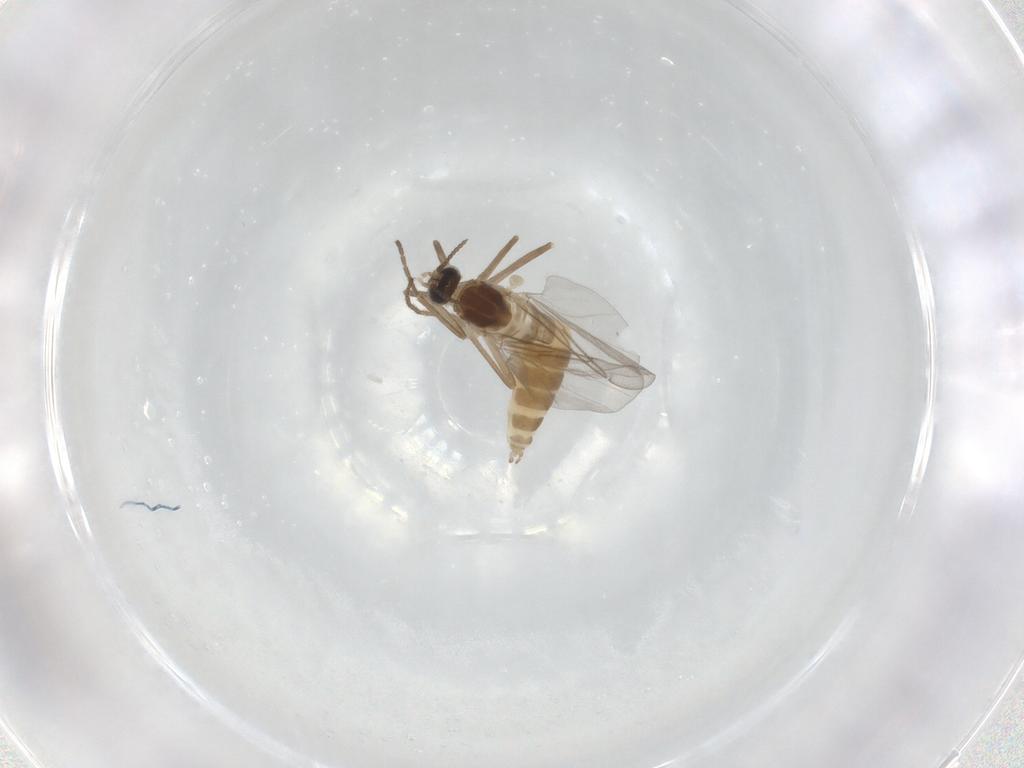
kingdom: Animalia
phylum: Arthropoda
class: Insecta
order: Diptera
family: Cecidomyiidae
